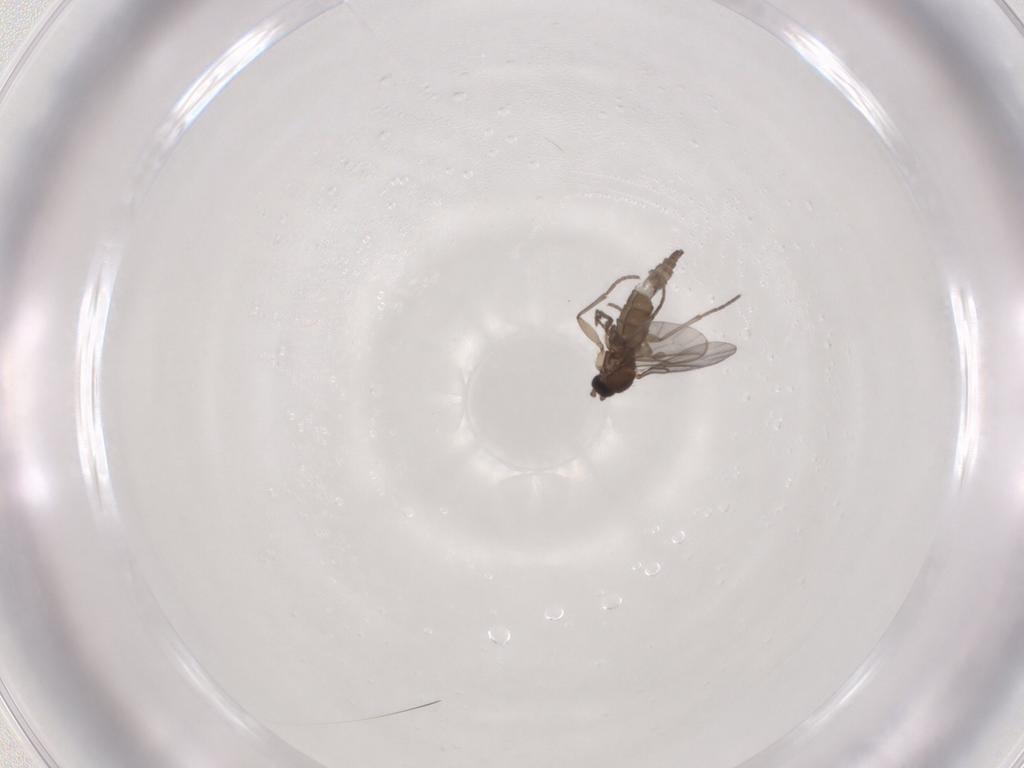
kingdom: Animalia
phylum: Arthropoda
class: Insecta
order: Diptera
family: Sciaridae
